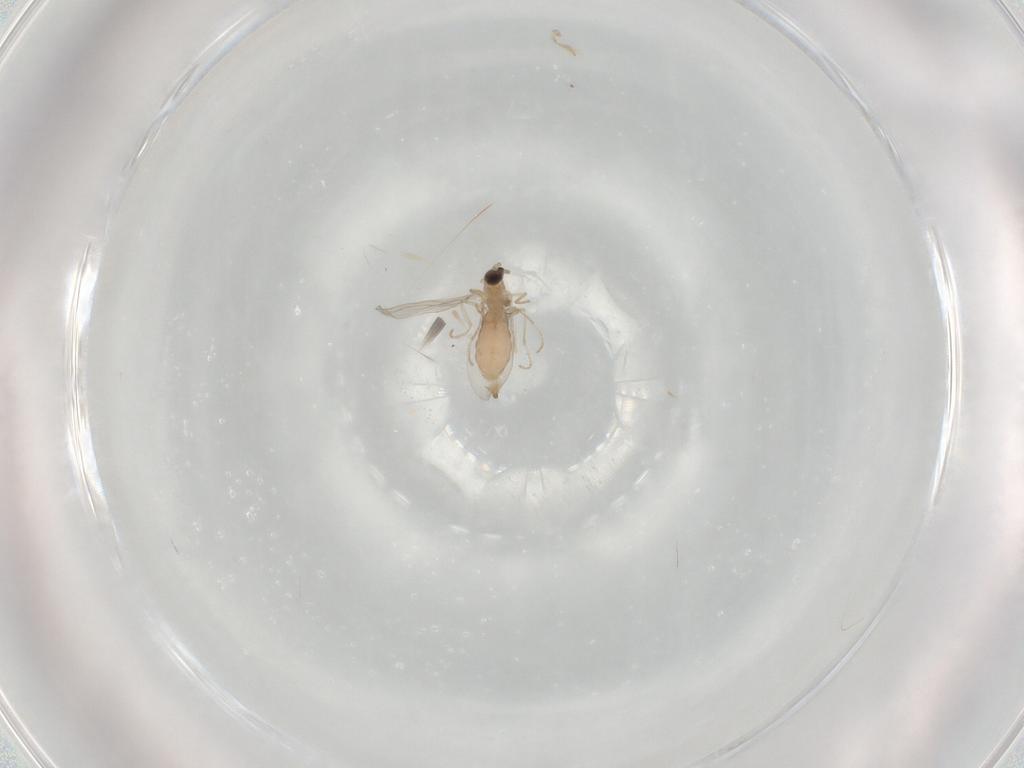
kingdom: Animalia
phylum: Arthropoda
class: Insecta
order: Diptera
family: Cecidomyiidae
